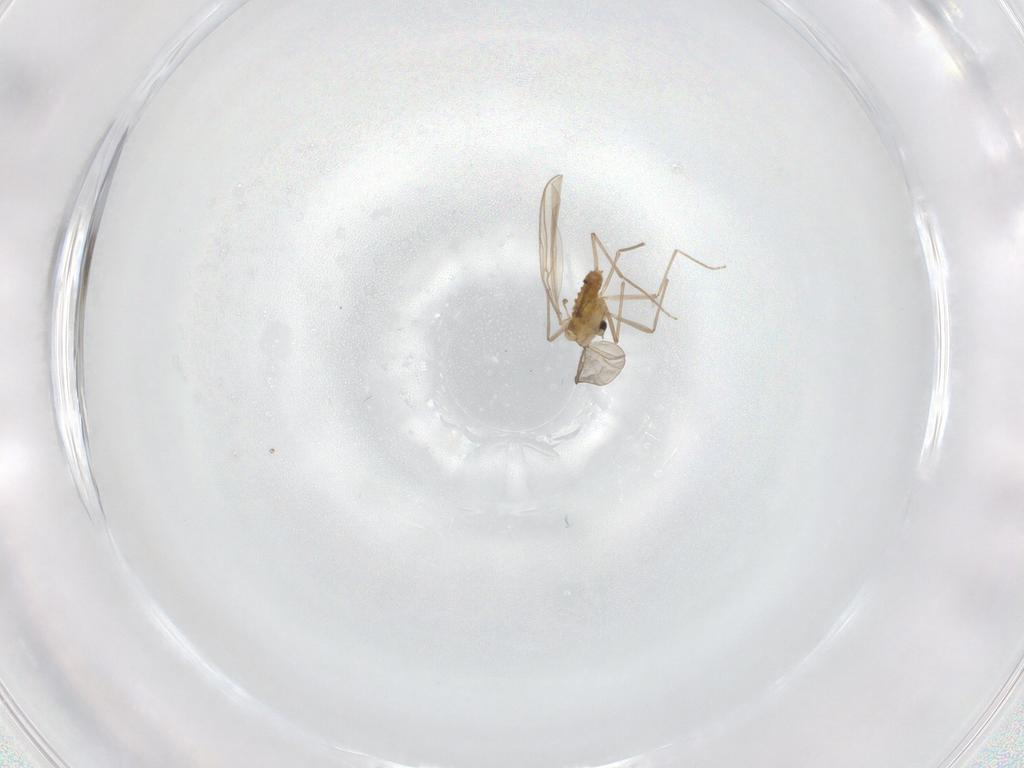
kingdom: Animalia
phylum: Arthropoda
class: Insecta
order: Diptera
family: Chironomidae
